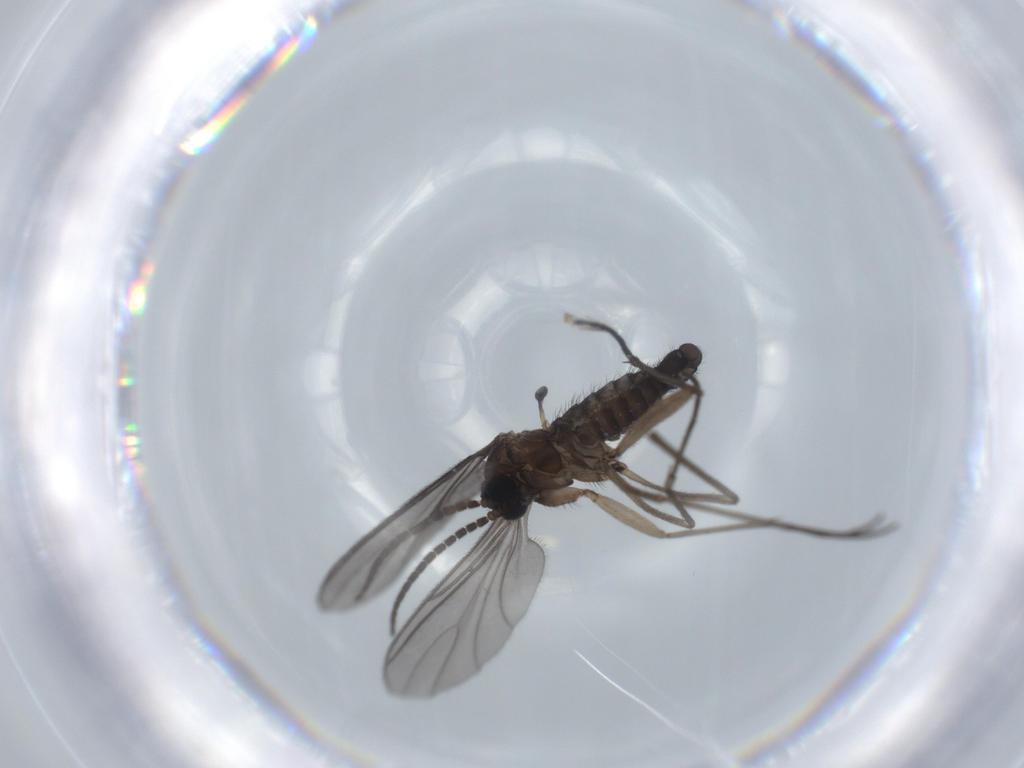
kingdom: Animalia
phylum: Arthropoda
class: Insecta
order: Diptera
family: Sciaridae
